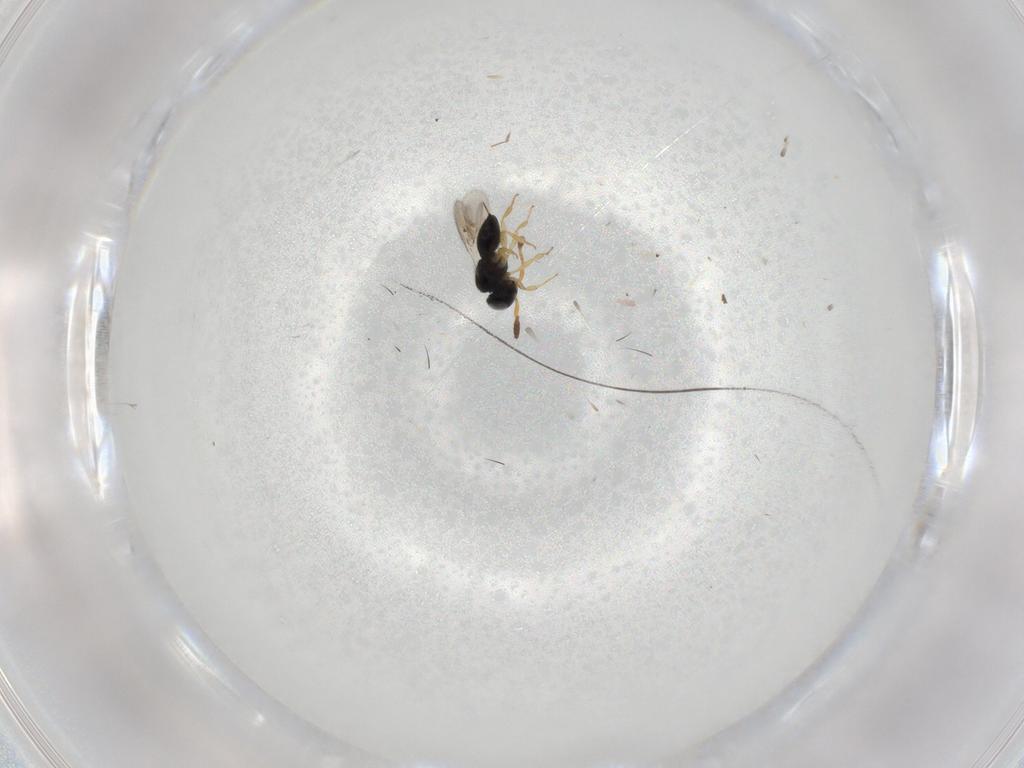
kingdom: Animalia
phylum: Arthropoda
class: Insecta
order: Hymenoptera
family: Scelionidae
